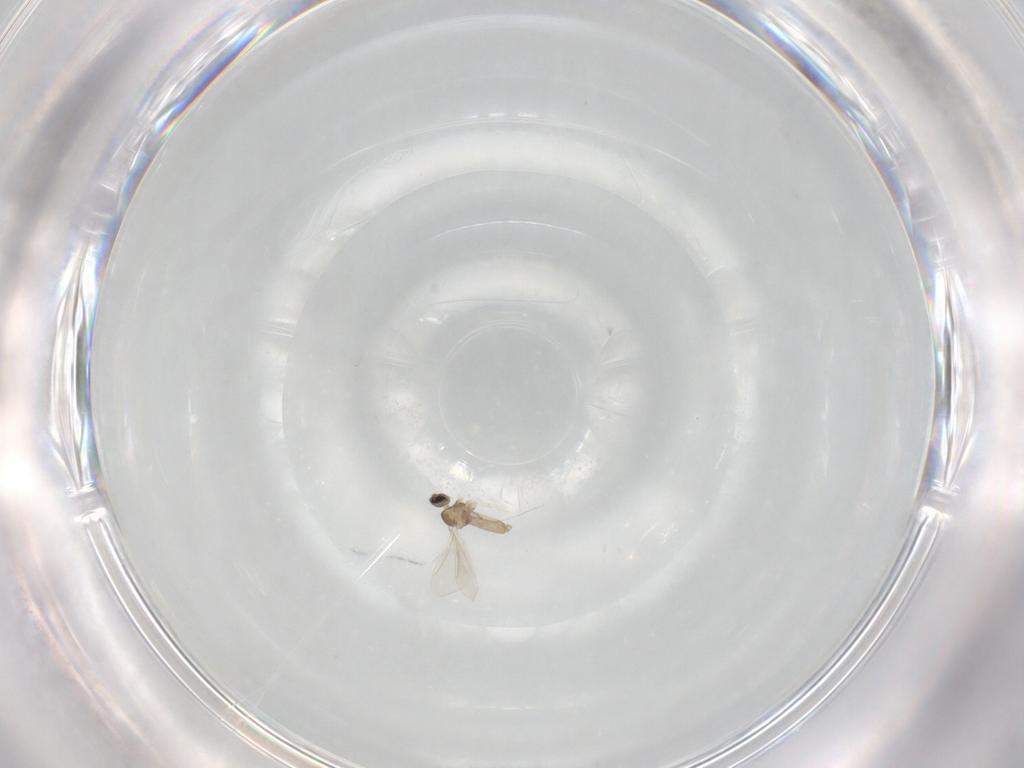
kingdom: Animalia
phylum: Arthropoda
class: Insecta
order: Diptera
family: Cecidomyiidae
